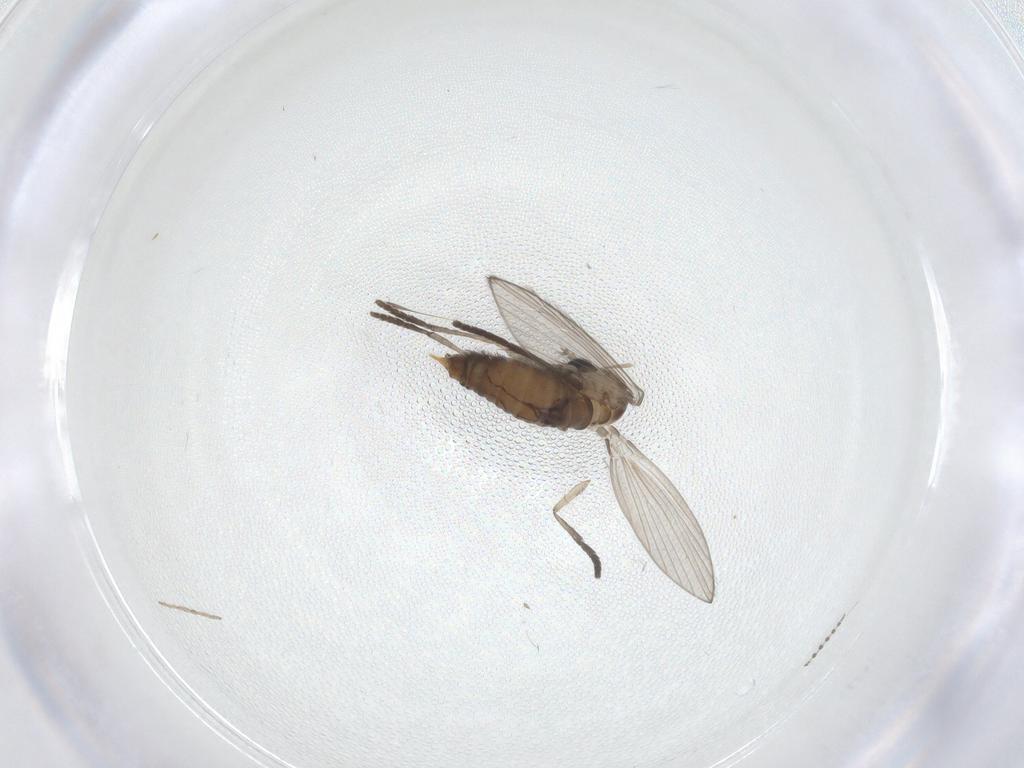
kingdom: Animalia
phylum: Arthropoda
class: Insecta
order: Diptera
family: Psychodidae
